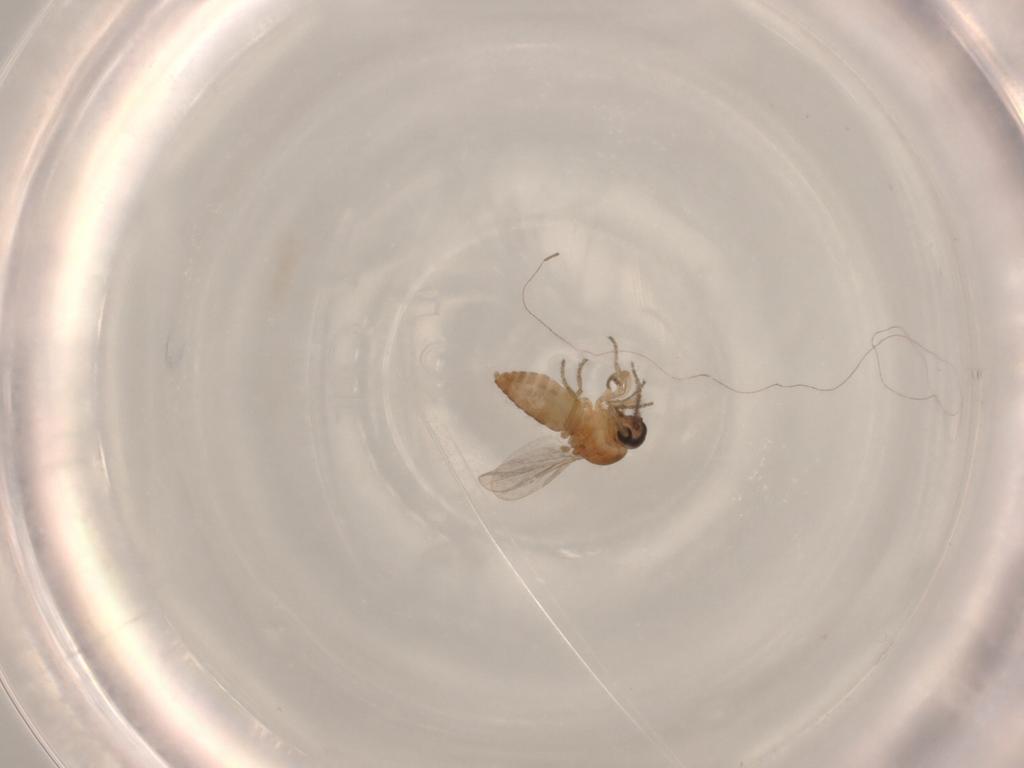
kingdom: Animalia
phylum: Arthropoda
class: Insecta
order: Diptera
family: Ceratopogonidae
